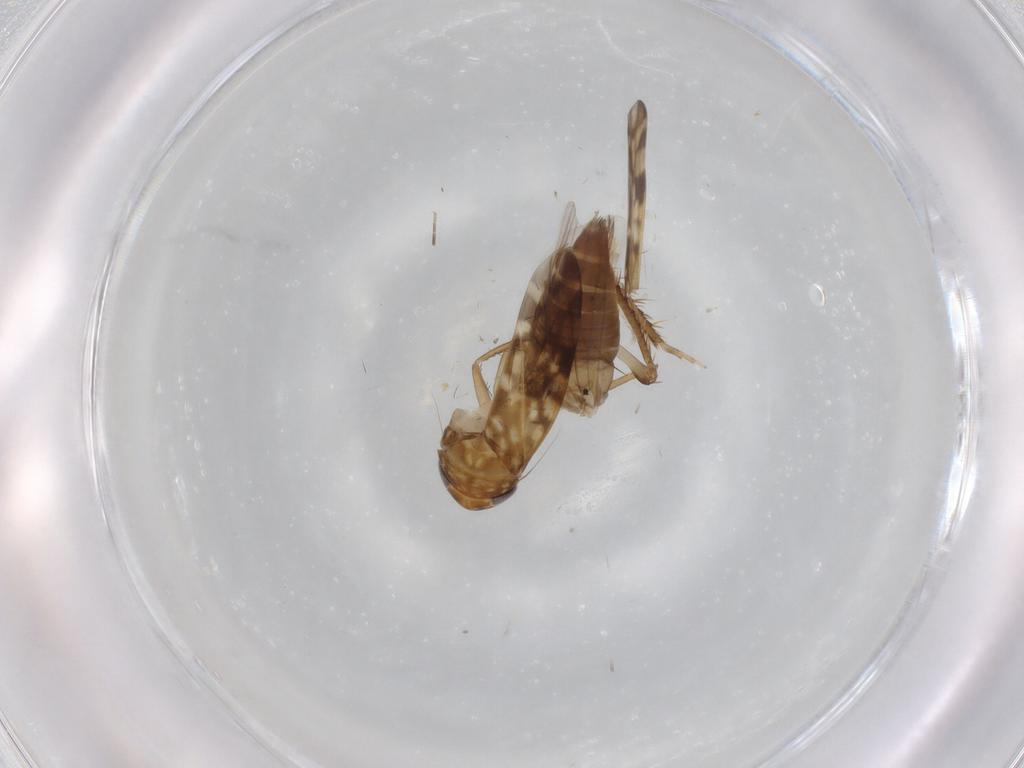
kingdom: Animalia
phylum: Arthropoda
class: Insecta
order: Hemiptera
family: Cicadellidae
